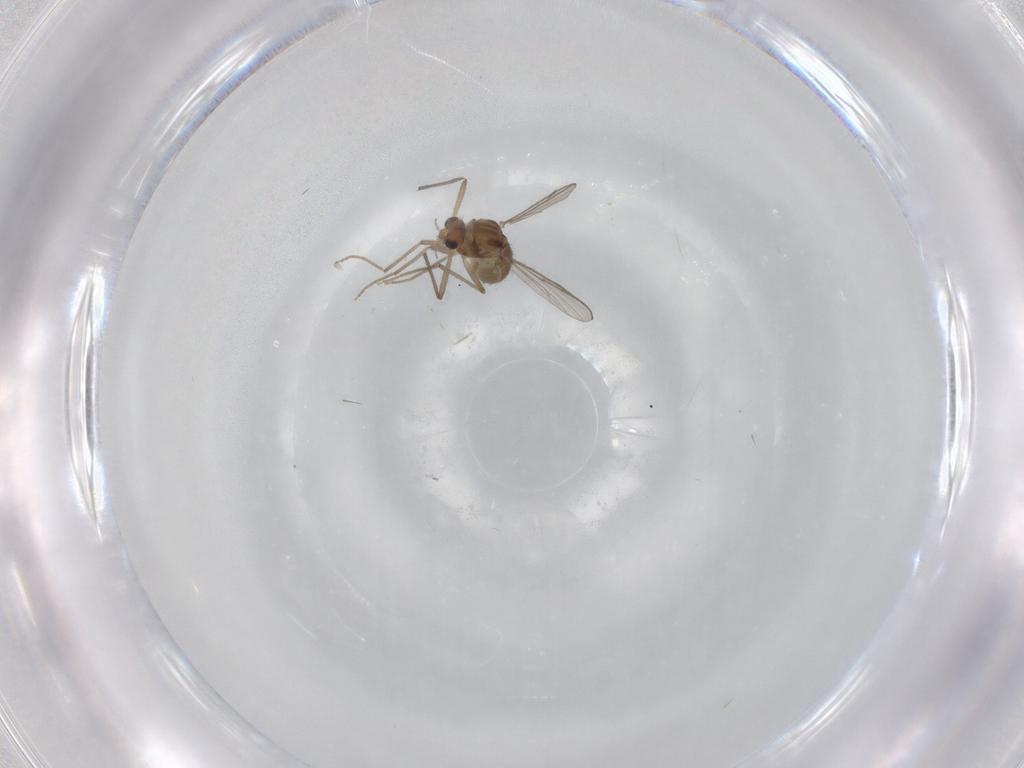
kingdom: Animalia
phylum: Arthropoda
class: Insecta
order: Diptera
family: Chironomidae
